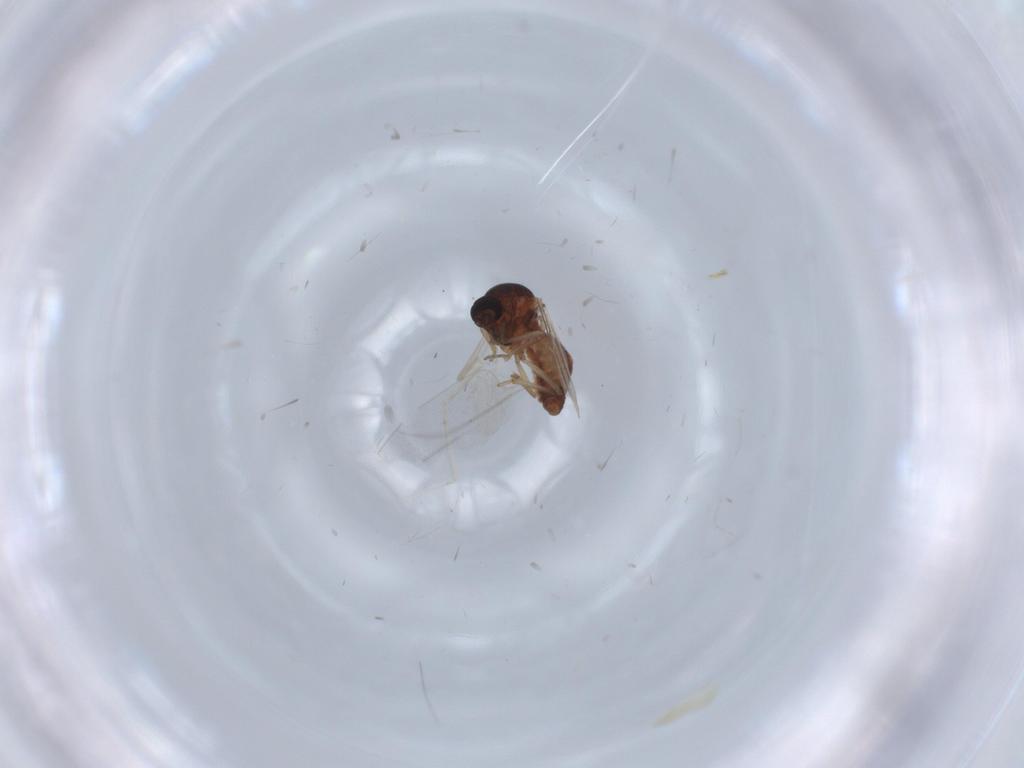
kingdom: Animalia
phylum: Arthropoda
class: Insecta
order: Diptera
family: Ceratopogonidae
